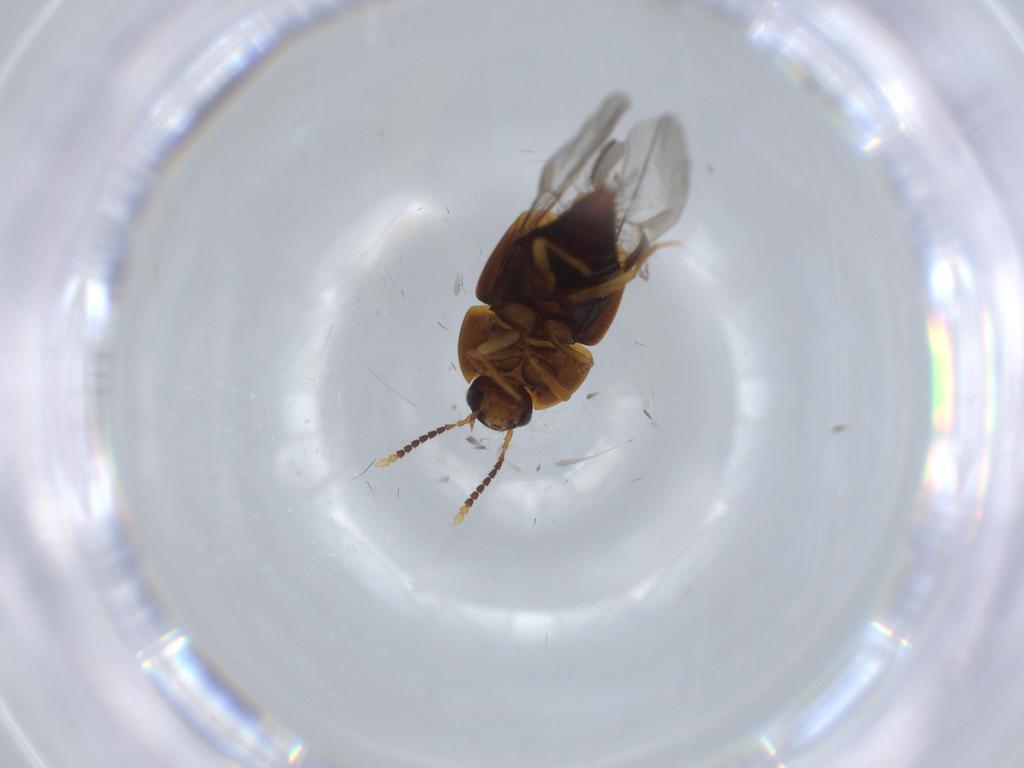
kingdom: Animalia
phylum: Arthropoda
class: Insecta
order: Coleoptera
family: Staphylinidae
